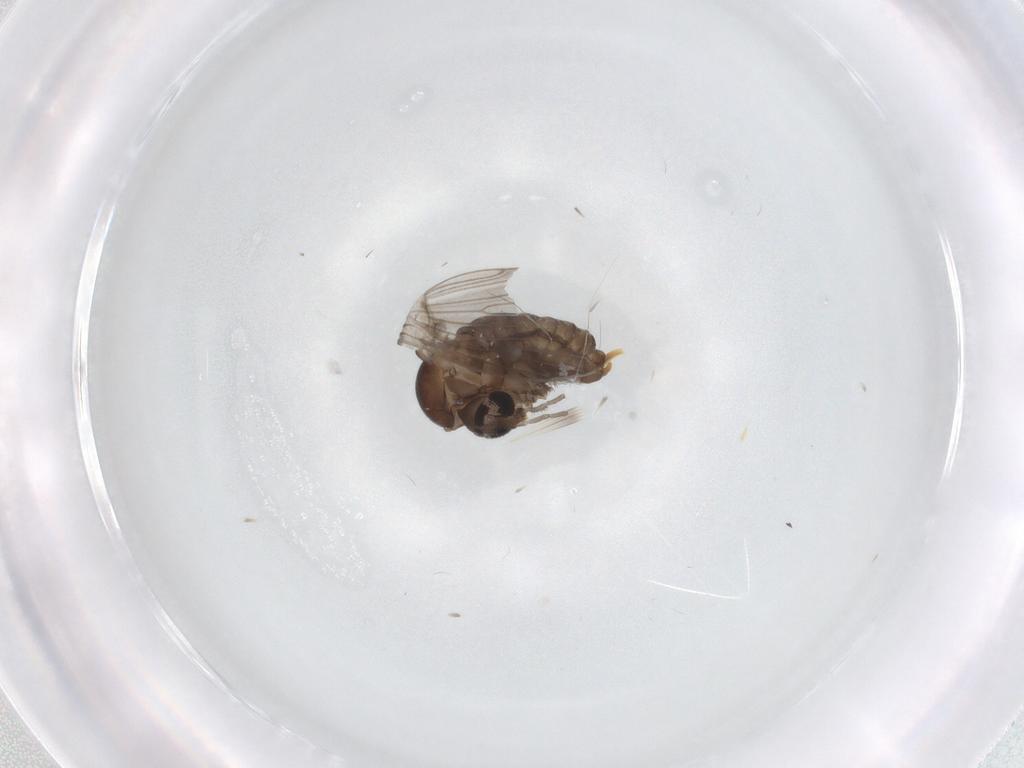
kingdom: Animalia
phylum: Arthropoda
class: Insecta
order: Diptera
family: Psychodidae
